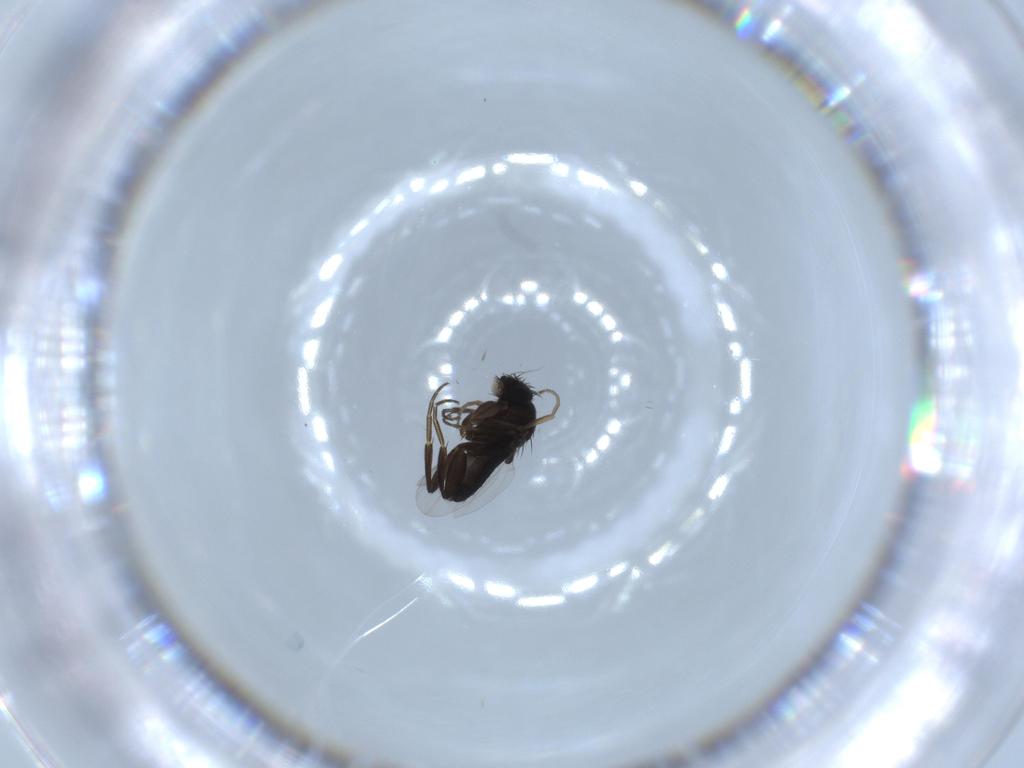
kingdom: Animalia
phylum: Arthropoda
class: Insecta
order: Diptera
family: Phoridae
